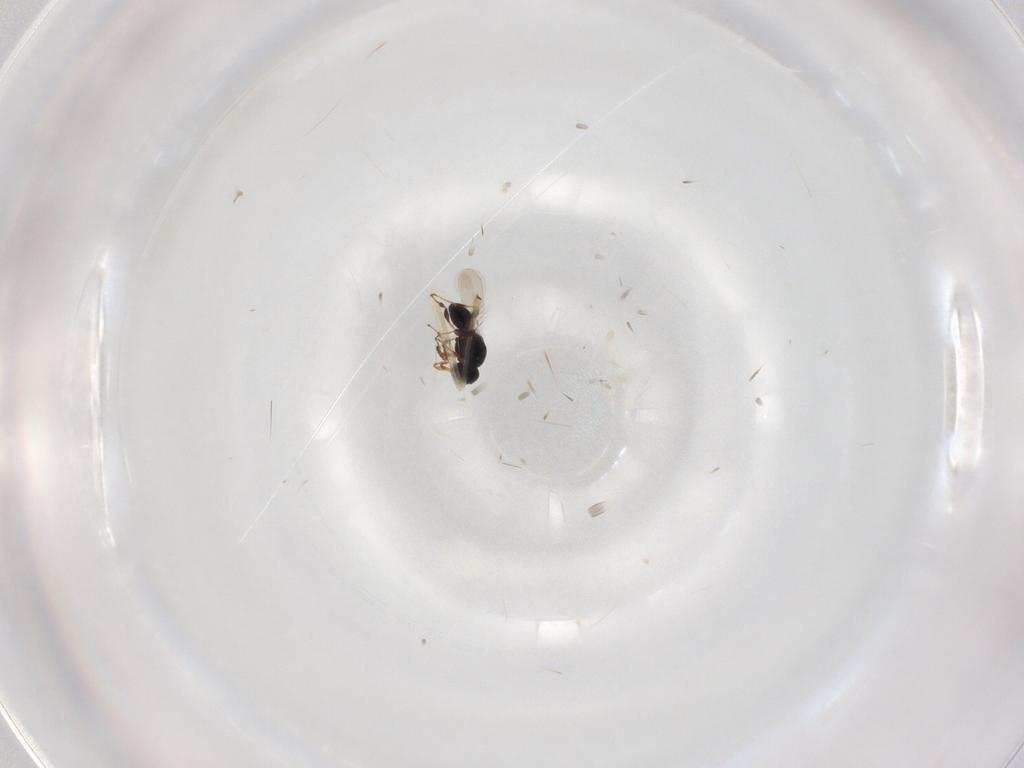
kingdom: Animalia
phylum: Arthropoda
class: Insecta
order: Hymenoptera
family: Platygastridae
